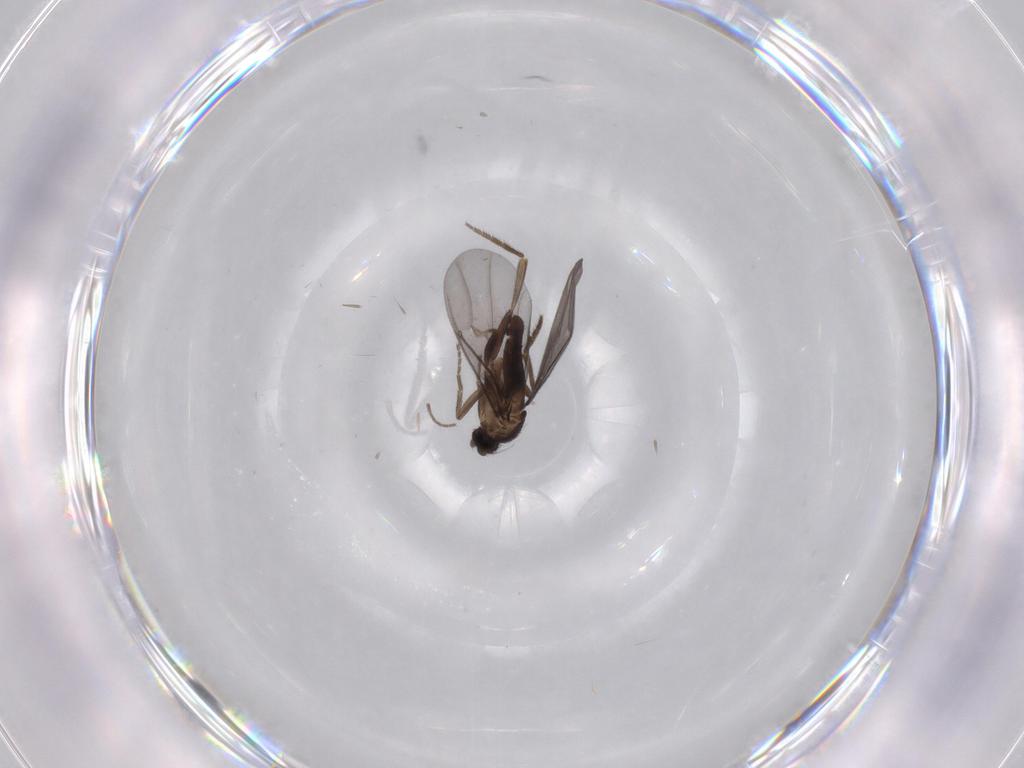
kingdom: Animalia
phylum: Arthropoda
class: Insecta
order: Diptera
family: Phoridae
